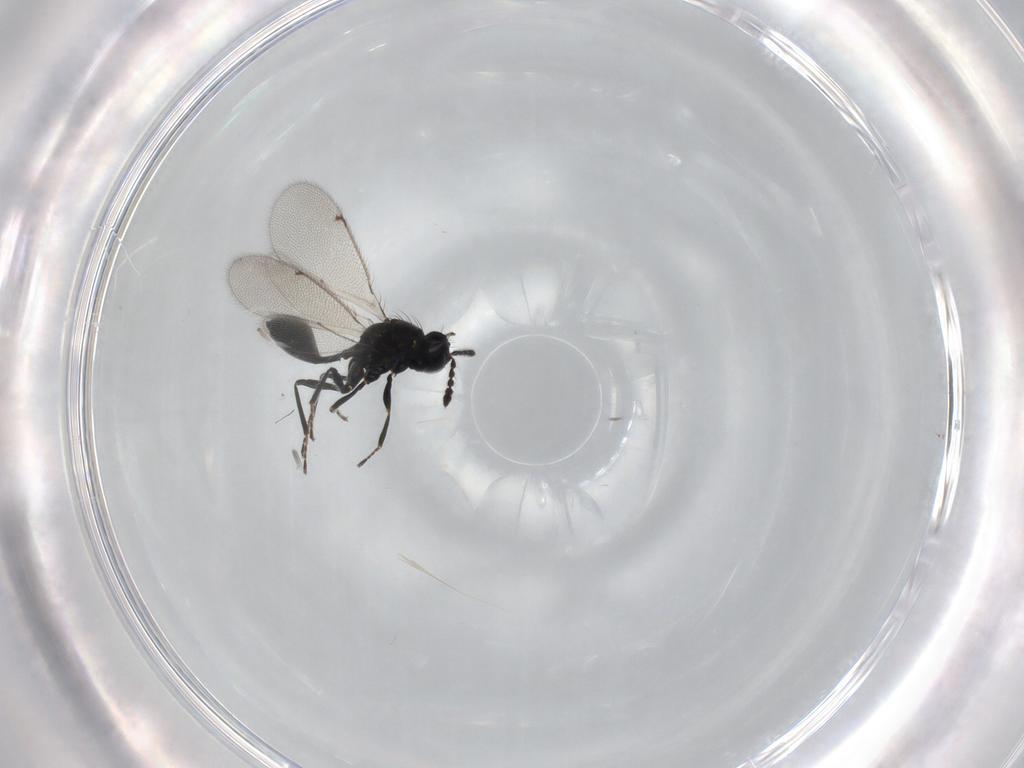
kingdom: Animalia
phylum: Arthropoda
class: Insecta
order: Hymenoptera
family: Eulophidae
